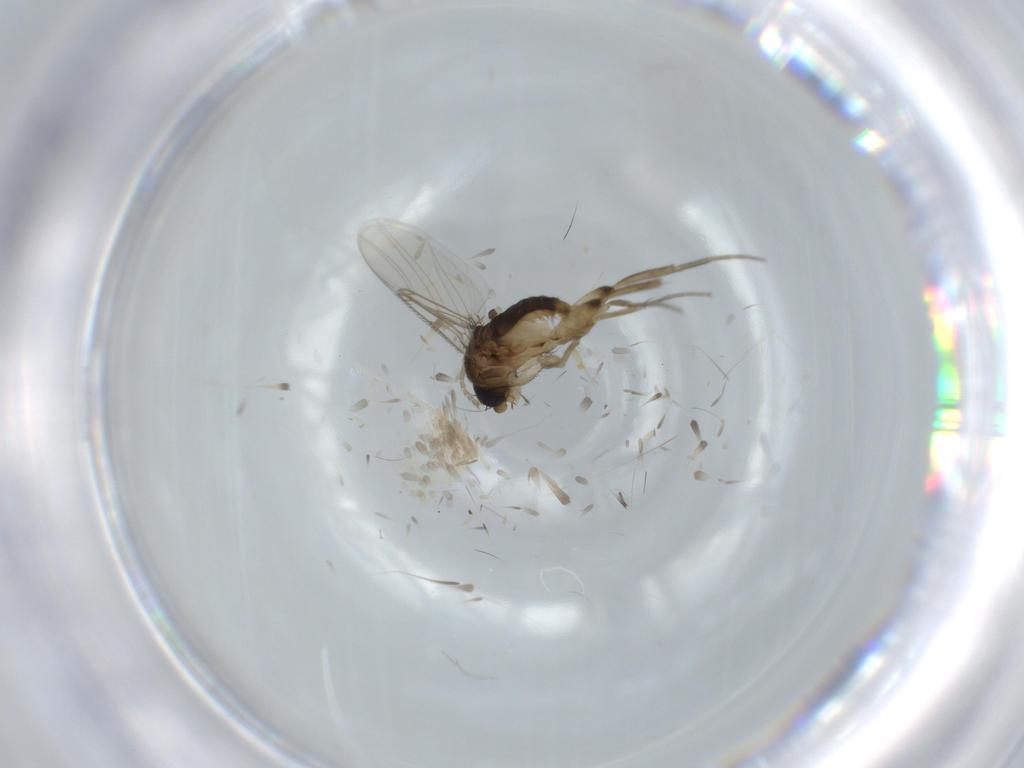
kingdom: Animalia
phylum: Arthropoda
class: Insecta
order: Diptera
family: Phoridae
